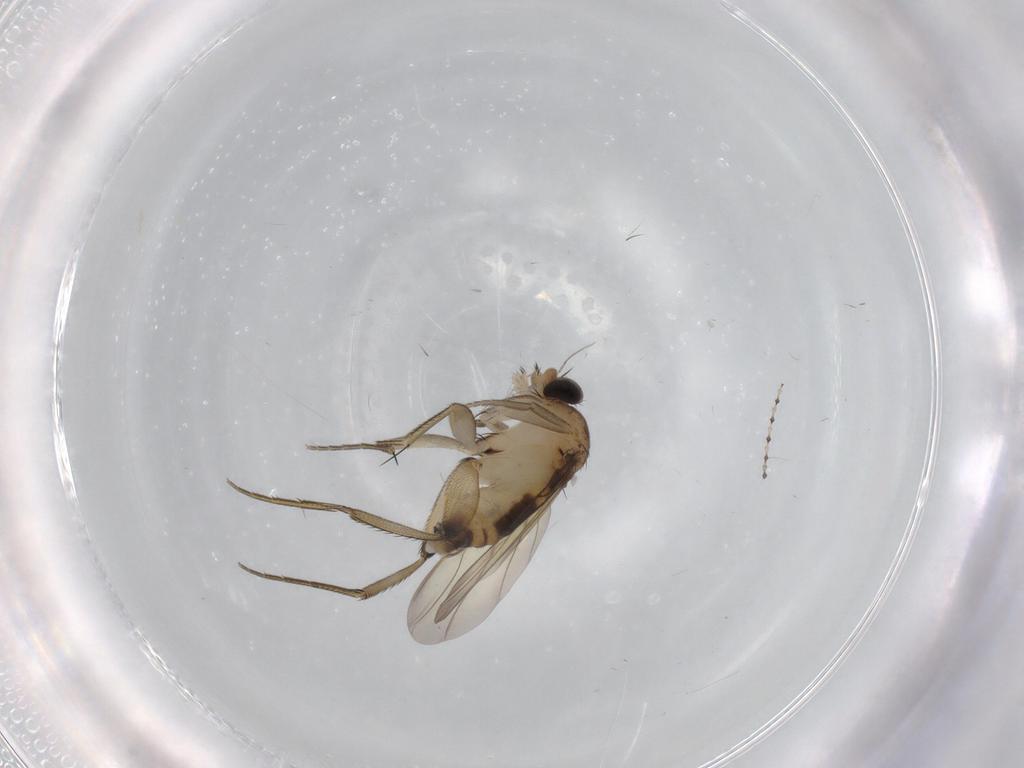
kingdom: Animalia
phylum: Arthropoda
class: Insecta
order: Diptera
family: Phoridae
